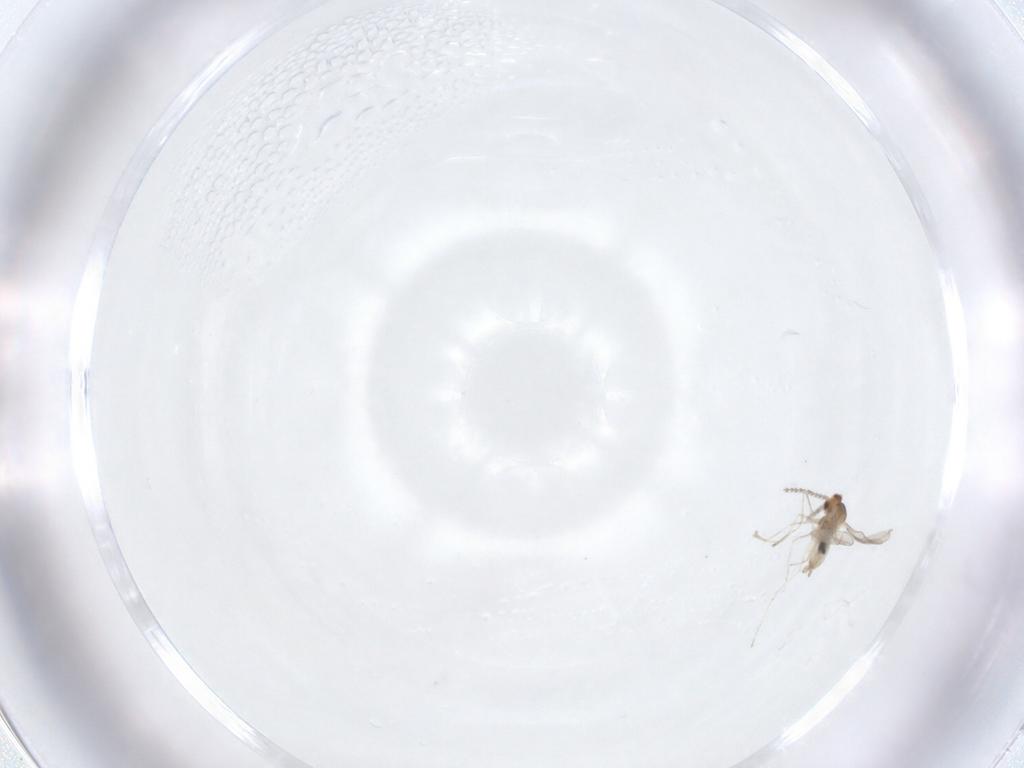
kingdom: Animalia
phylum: Arthropoda
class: Insecta
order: Diptera
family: Cecidomyiidae
